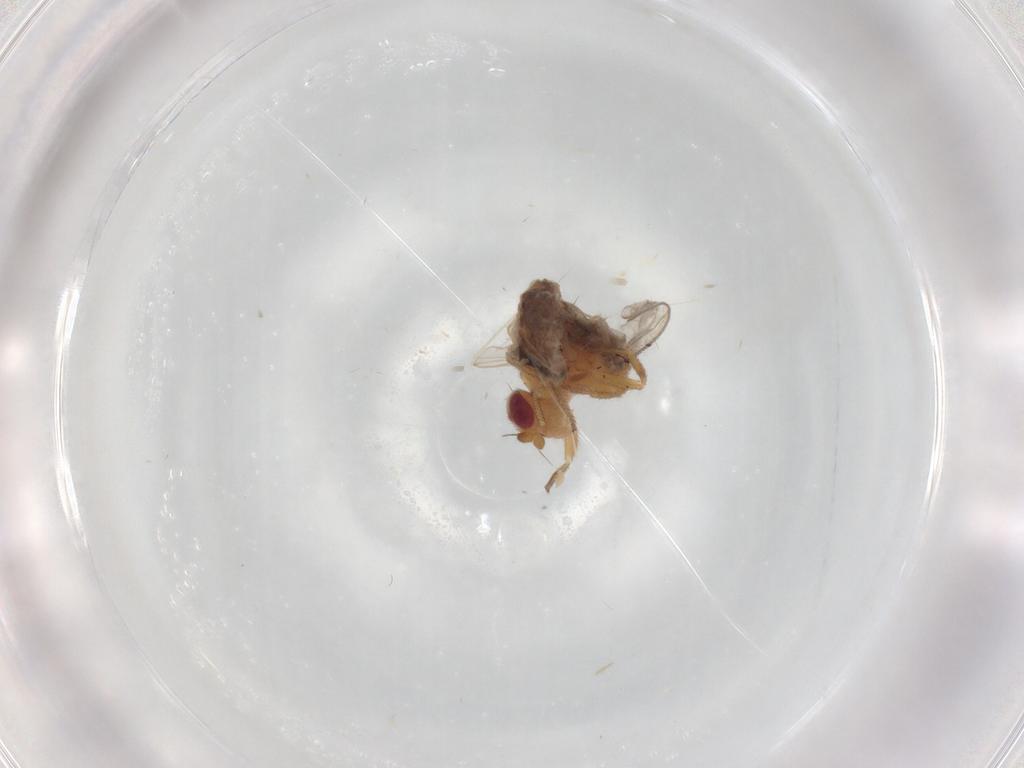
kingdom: Animalia
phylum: Arthropoda
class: Insecta
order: Diptera
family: Chloropidae
